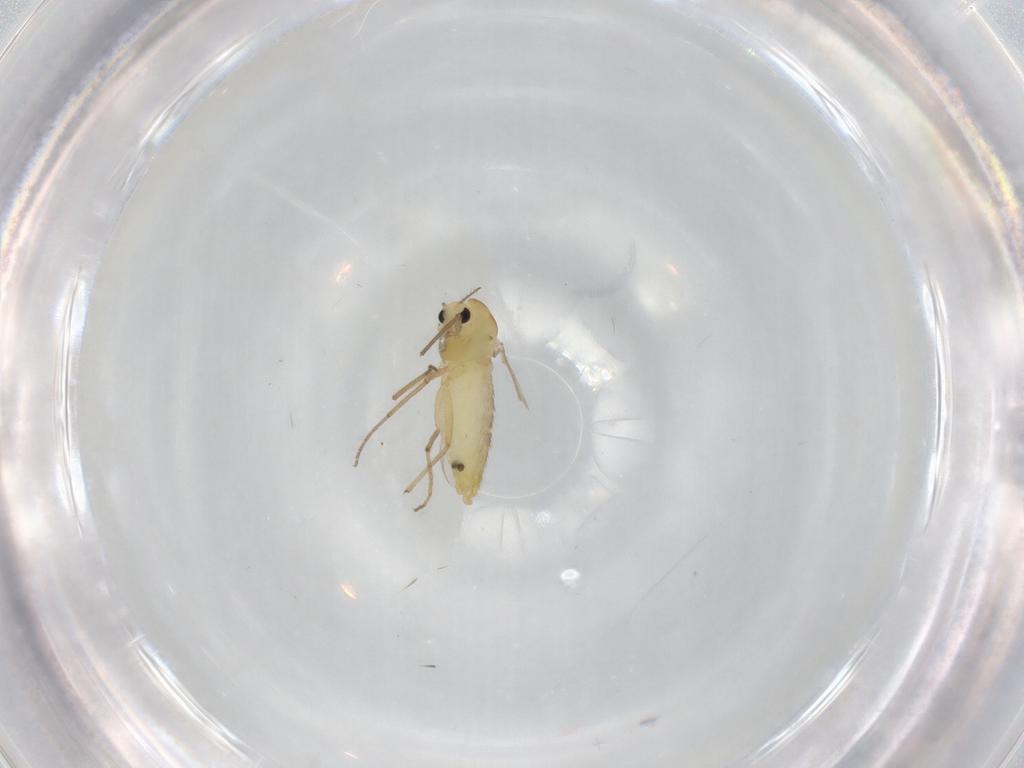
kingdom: Animalia
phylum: Arthropoda
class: Insecta
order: Diptera
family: Chironomidae
